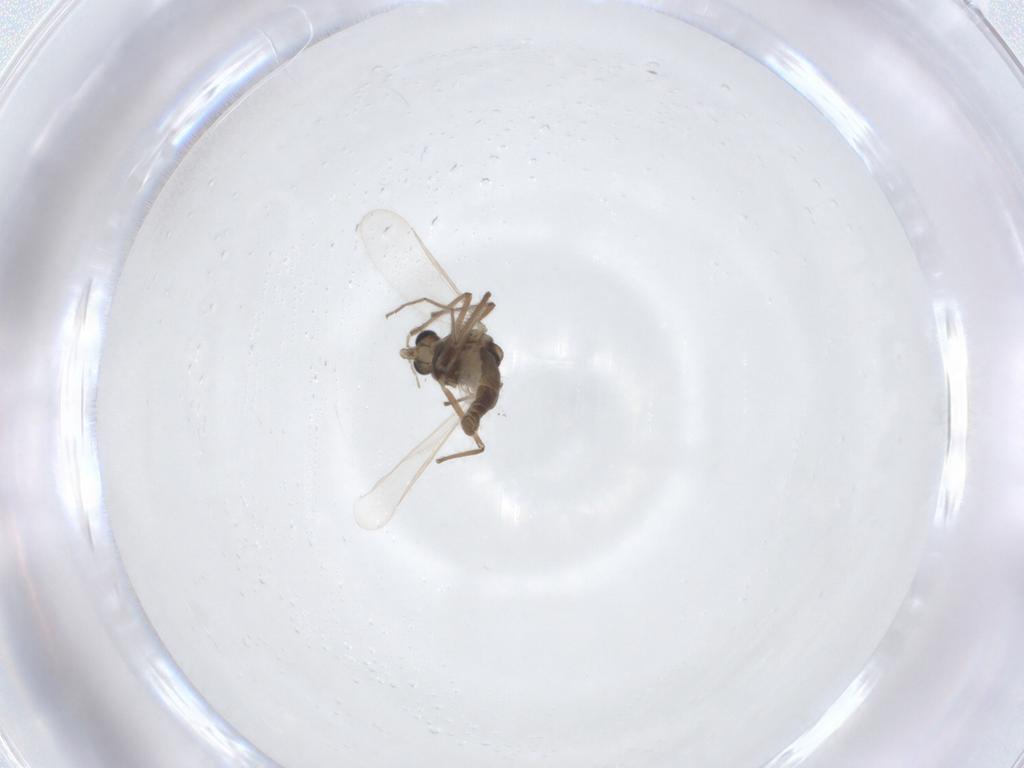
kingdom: Animalia
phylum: Arthropoda
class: Insecta
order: Diptera
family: Chironomidae
